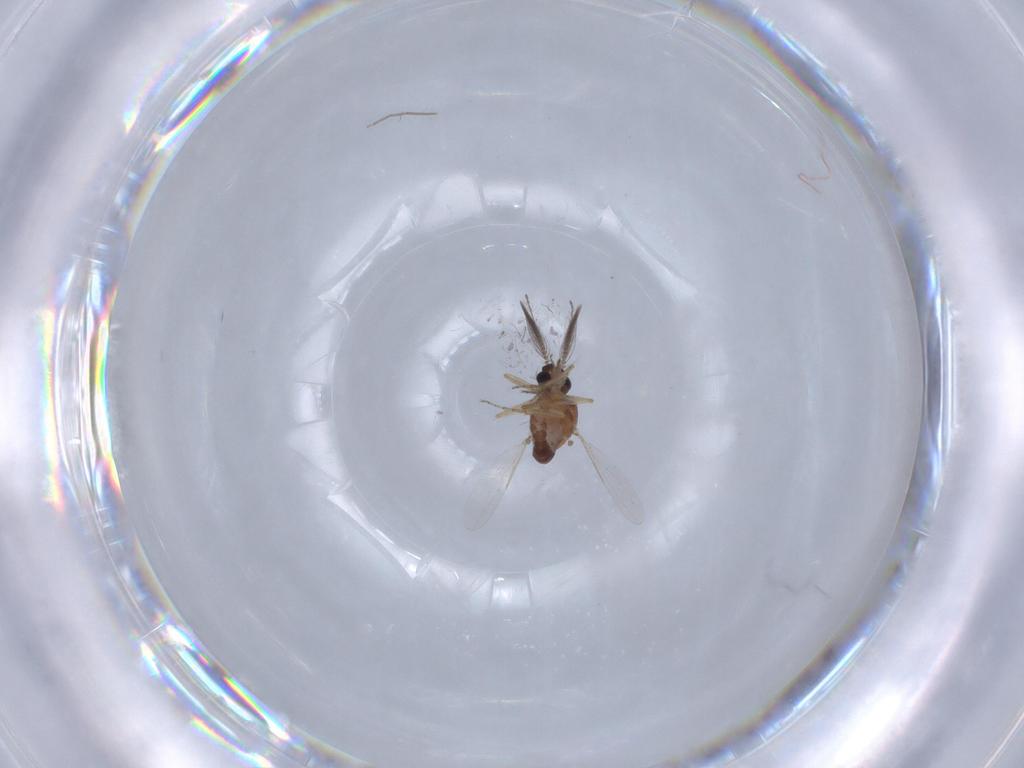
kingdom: Animalia
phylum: Arthropoda
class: Insecta
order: Diptera
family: Ceratopogonidae
